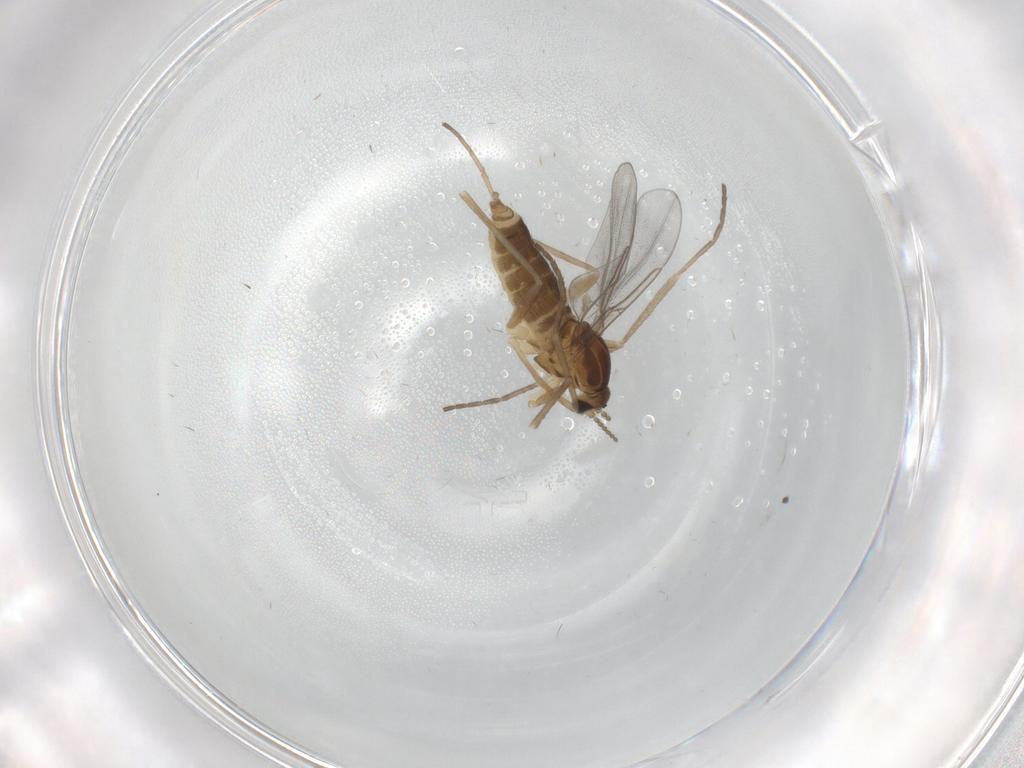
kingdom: Animalia
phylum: Arthropoda
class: Insecta
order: Diptera
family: Cecidomyiidae
